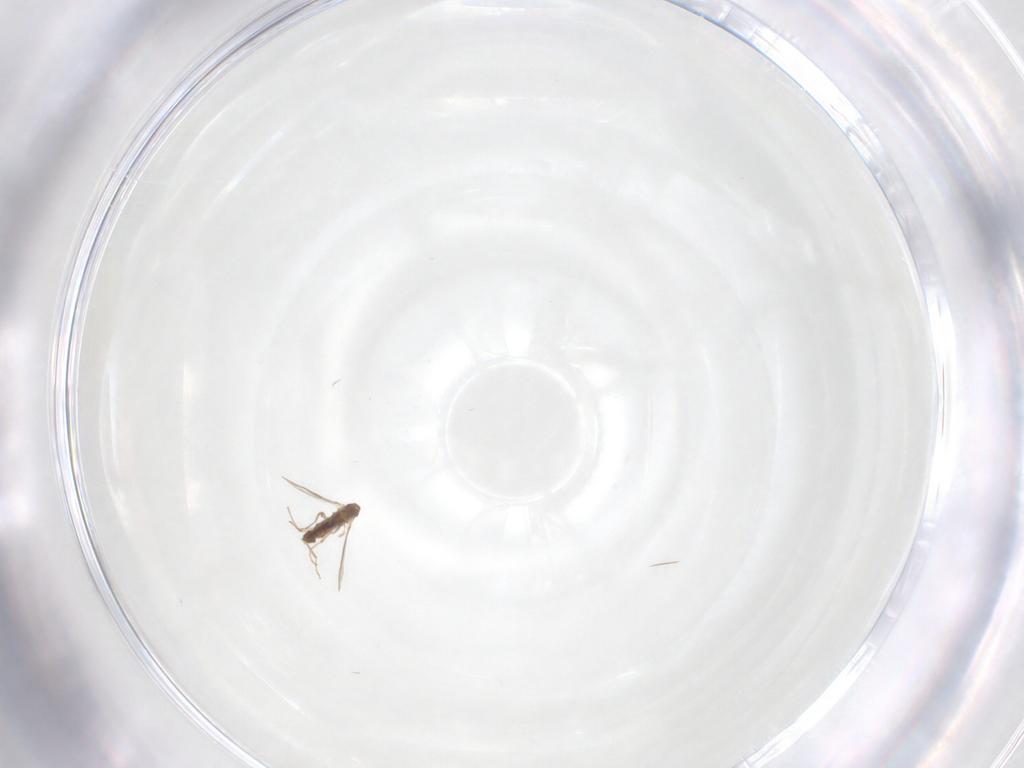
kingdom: Animalia
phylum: Arthropoda
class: Insecta
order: Diptera
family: Chironomidae
